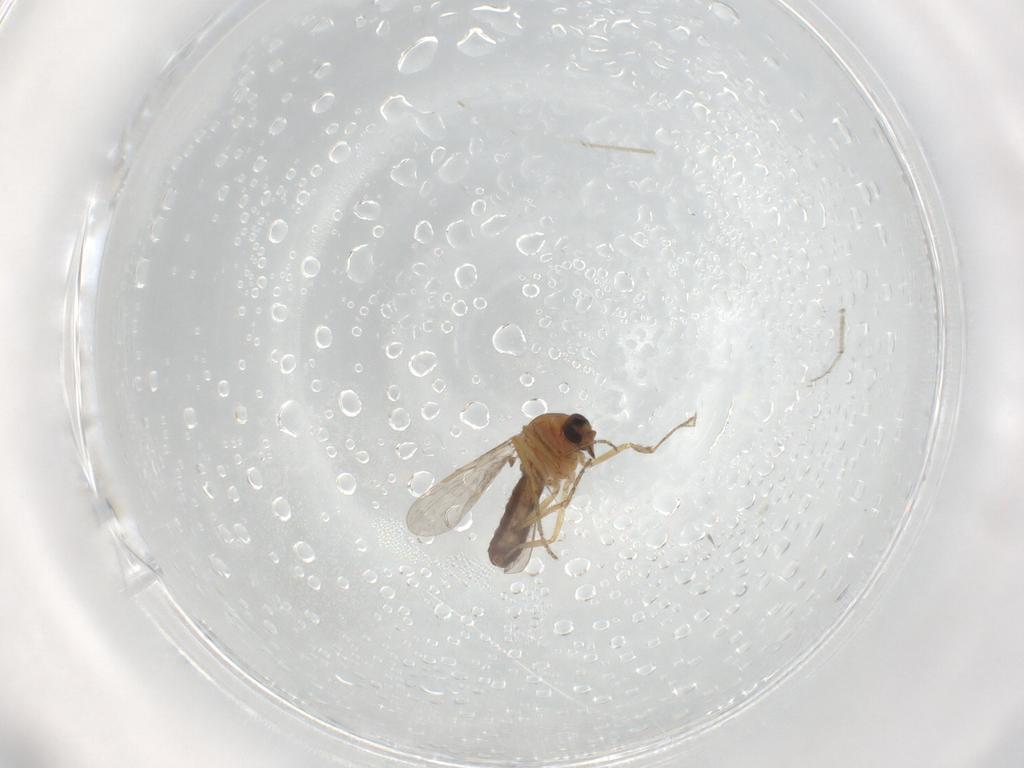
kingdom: Animalia
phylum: Arthropoda
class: Insecta
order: Diptera
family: Ceratopogonidae
